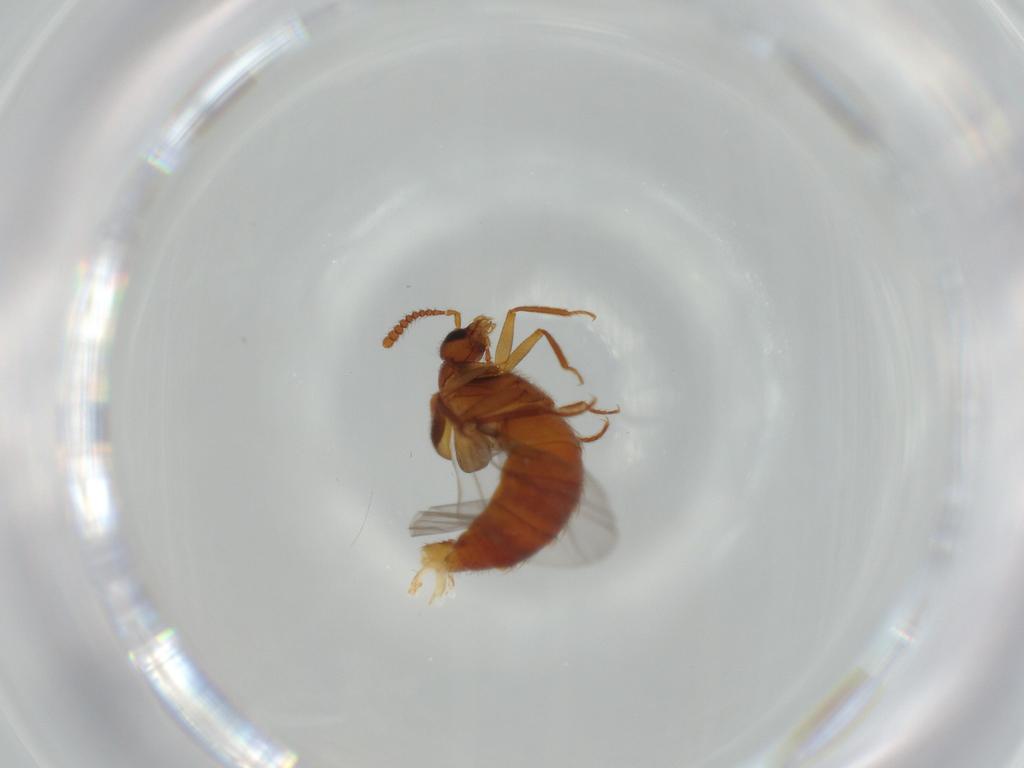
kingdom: Animalia
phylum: Arthropoda
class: Insecta
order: Coleoptera
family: Staphylinidae
